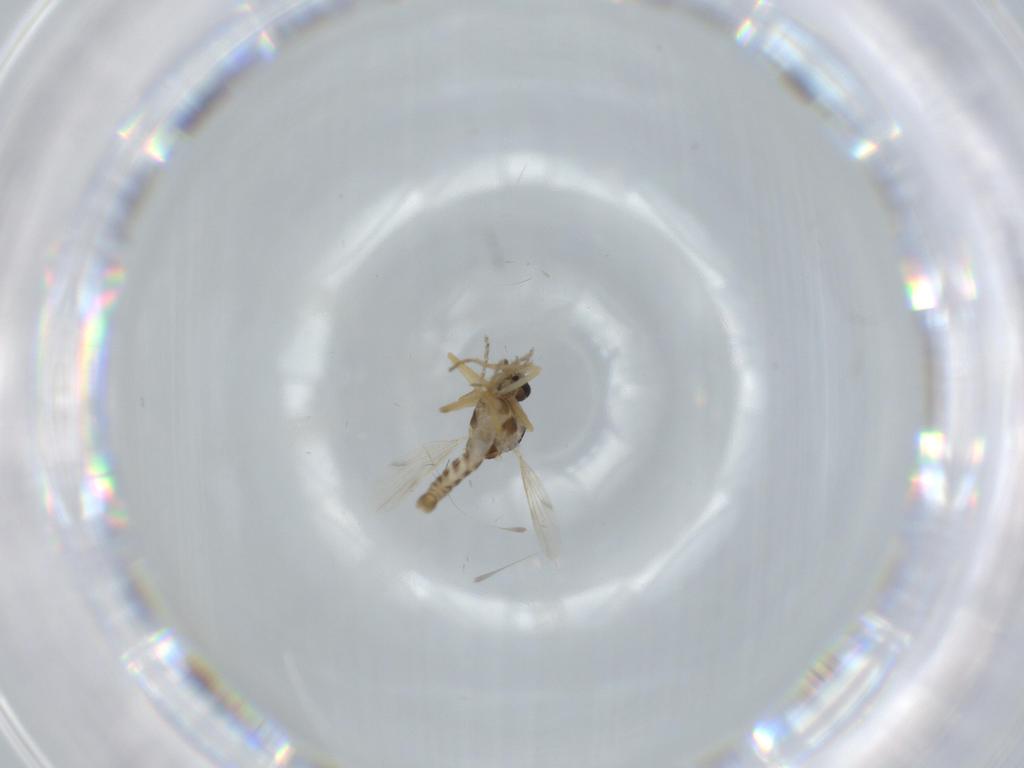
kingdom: Animalia
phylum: Arthropoda
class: Insecta
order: Diptera
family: Ceratopogonidae
